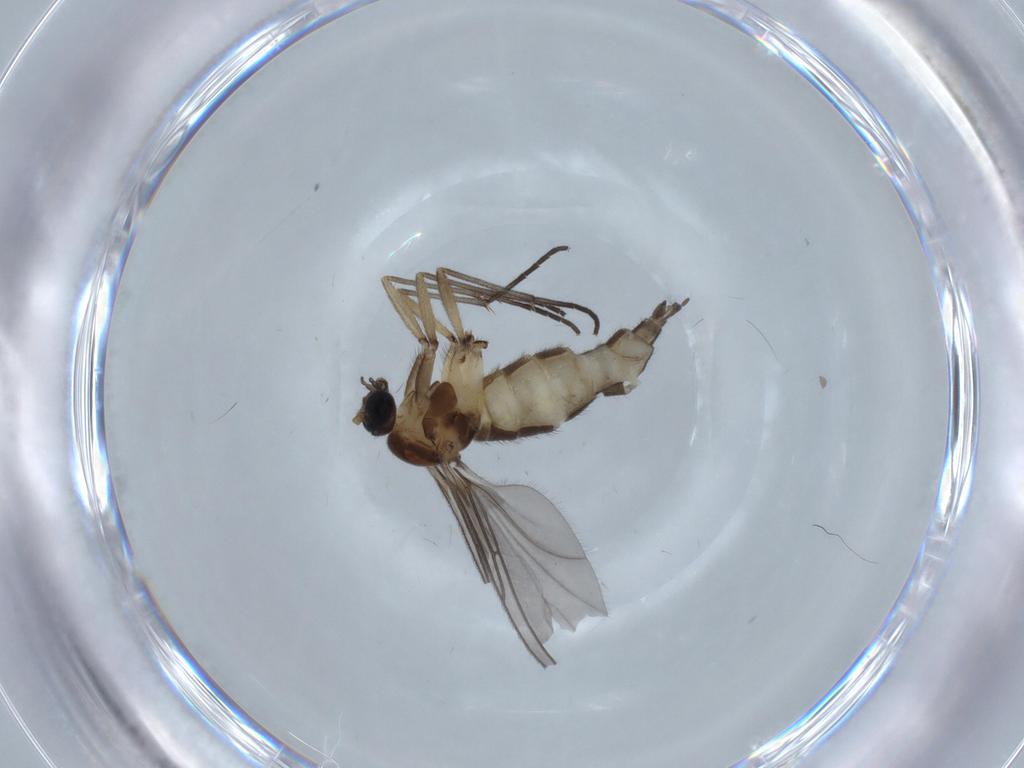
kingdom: Animalia
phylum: Arthropoda
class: Insecta
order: Diptera
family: Sciaridae
